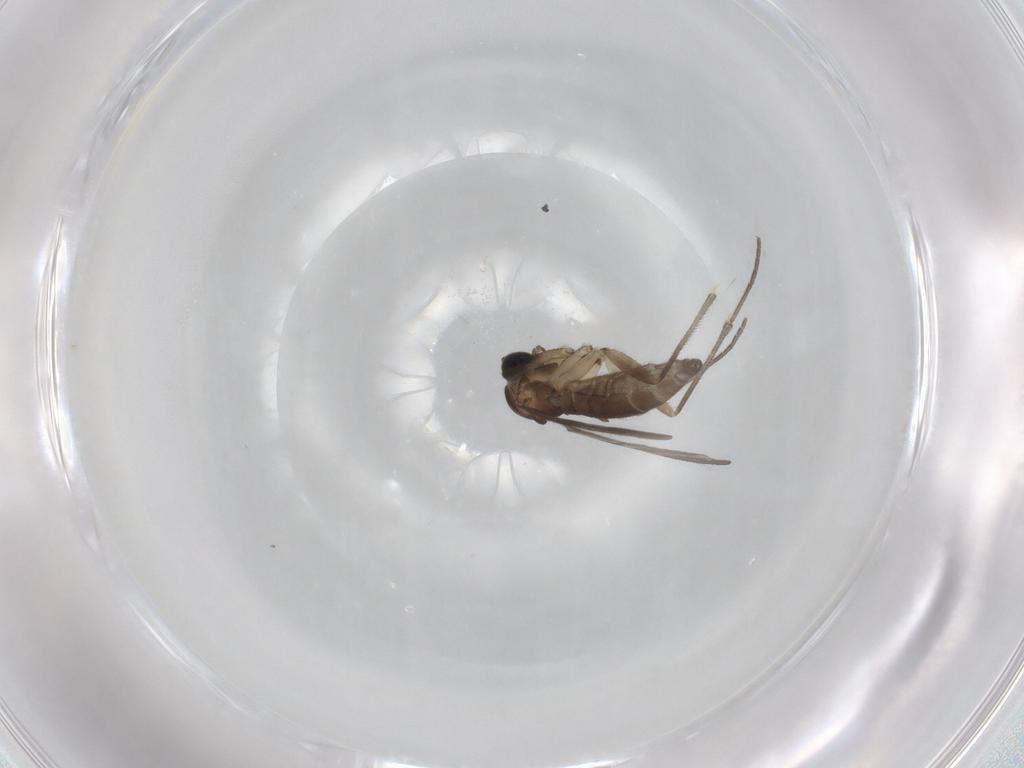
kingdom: Animalia
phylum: Arthropoda
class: Insecta
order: Diptera
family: Sciaridae
